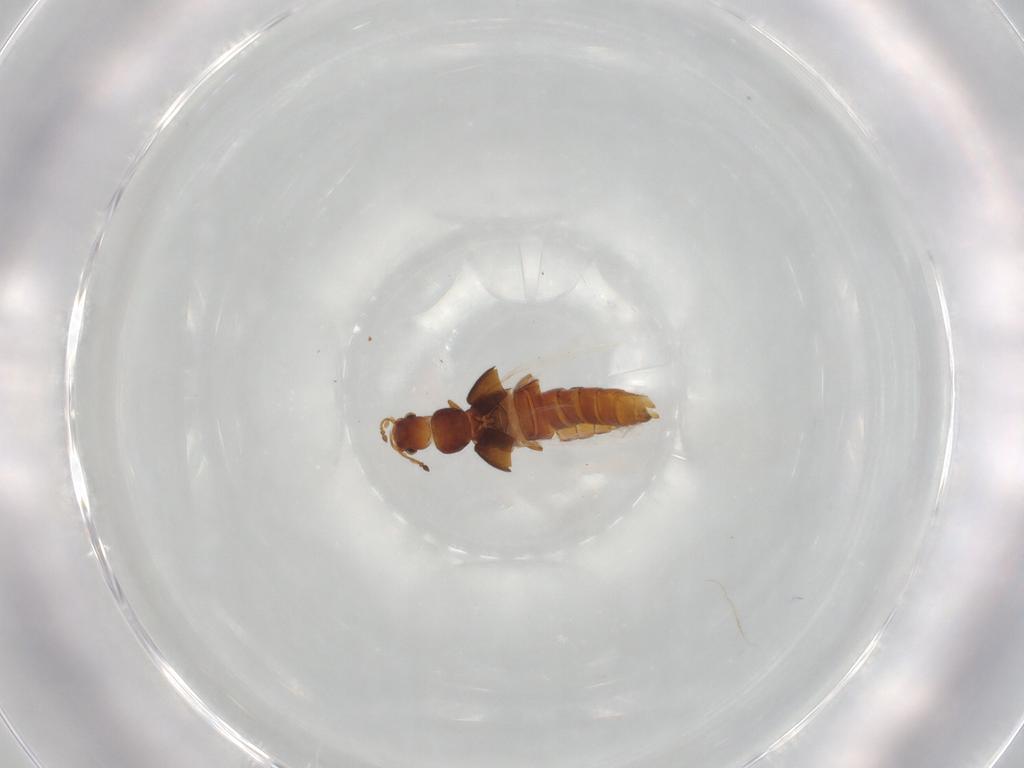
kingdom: Animalia
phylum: Arthropoda
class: Insecta
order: Coleoptera
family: Staphylinidae
